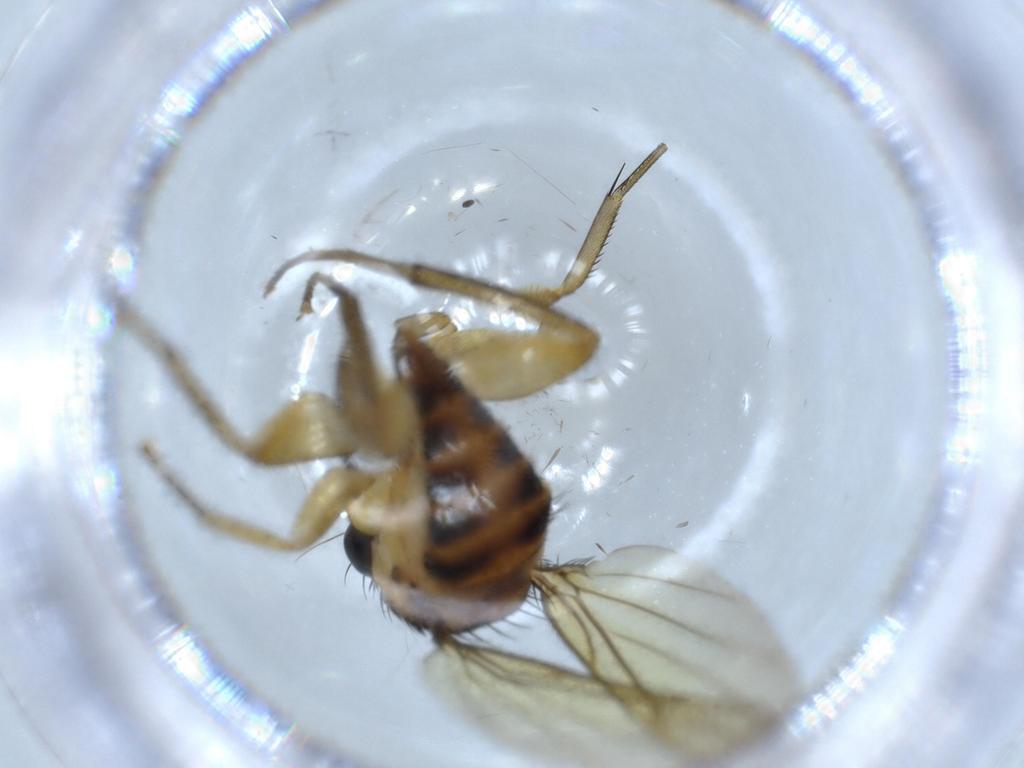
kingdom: Animalia
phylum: Arthropoda
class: Insecta
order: Diptera
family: Phoridae
